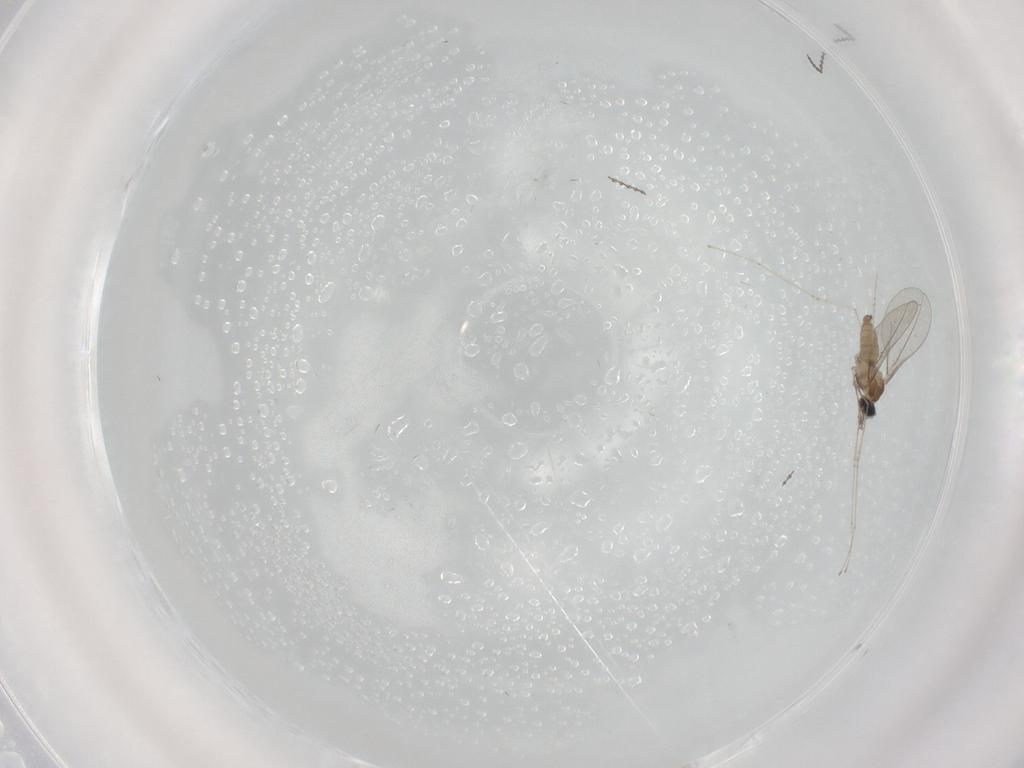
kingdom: Animalia
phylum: Arthropoda
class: Insecta
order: Diptera
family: Cecidomyiidae
